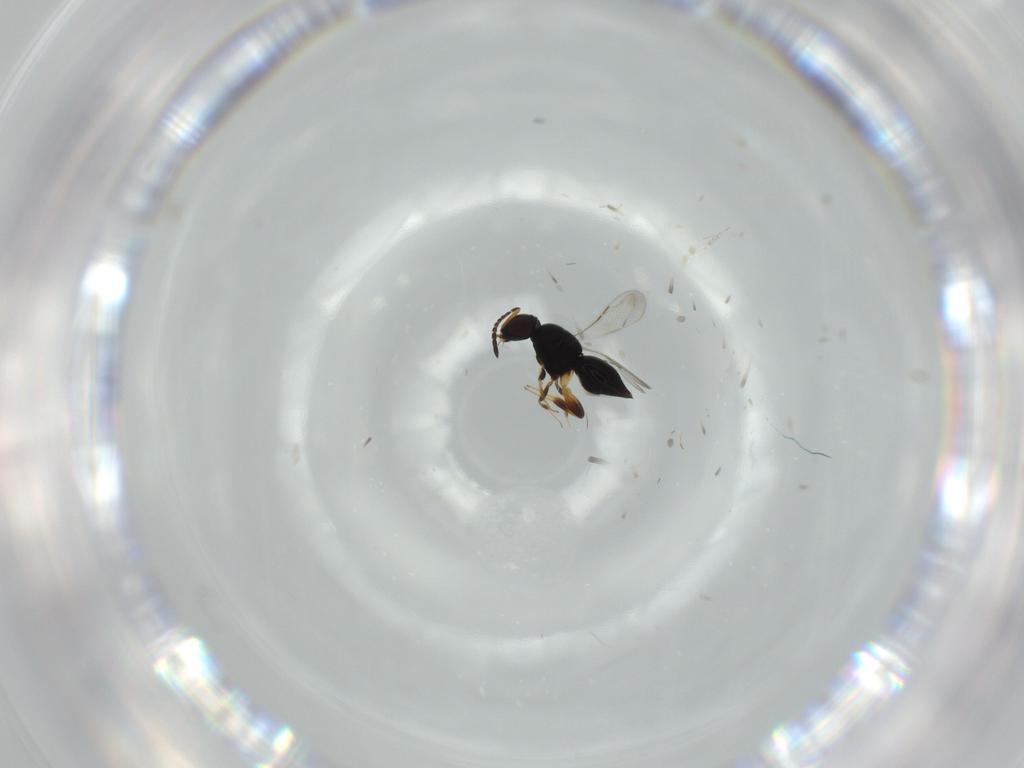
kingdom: Animalia
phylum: Arthropoda
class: Insecta
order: Hymenoptera
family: Ceraphronidae
